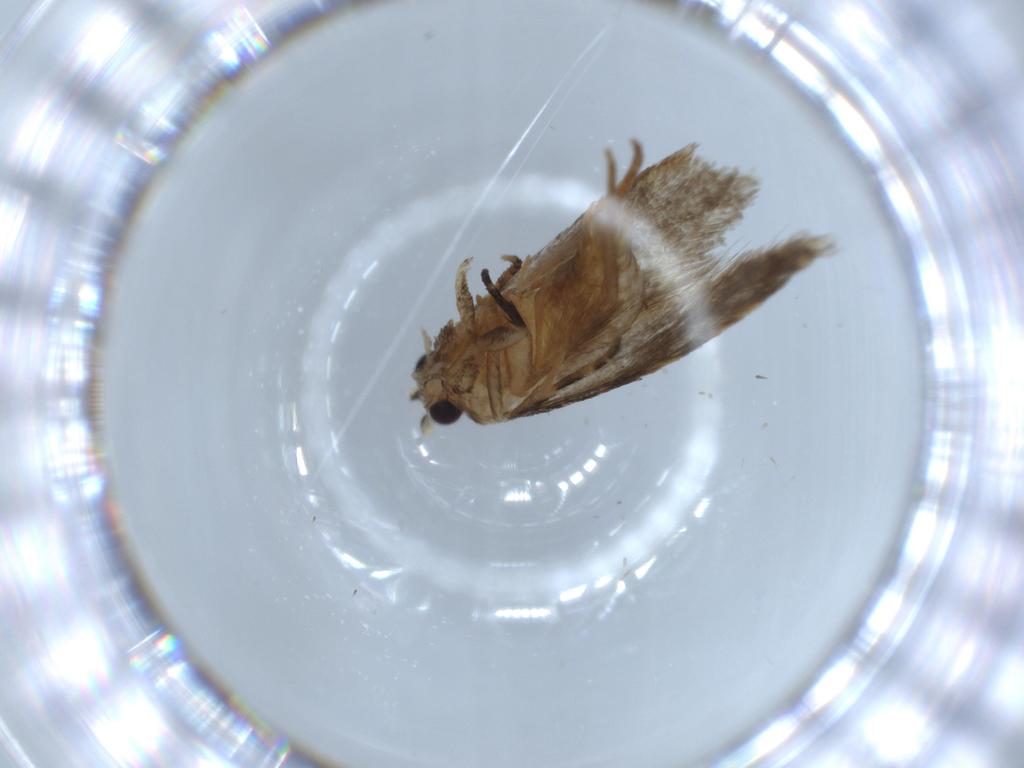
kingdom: Animalia
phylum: Arthropoda
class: Insecta
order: Lepidoptera
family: Tineidae
